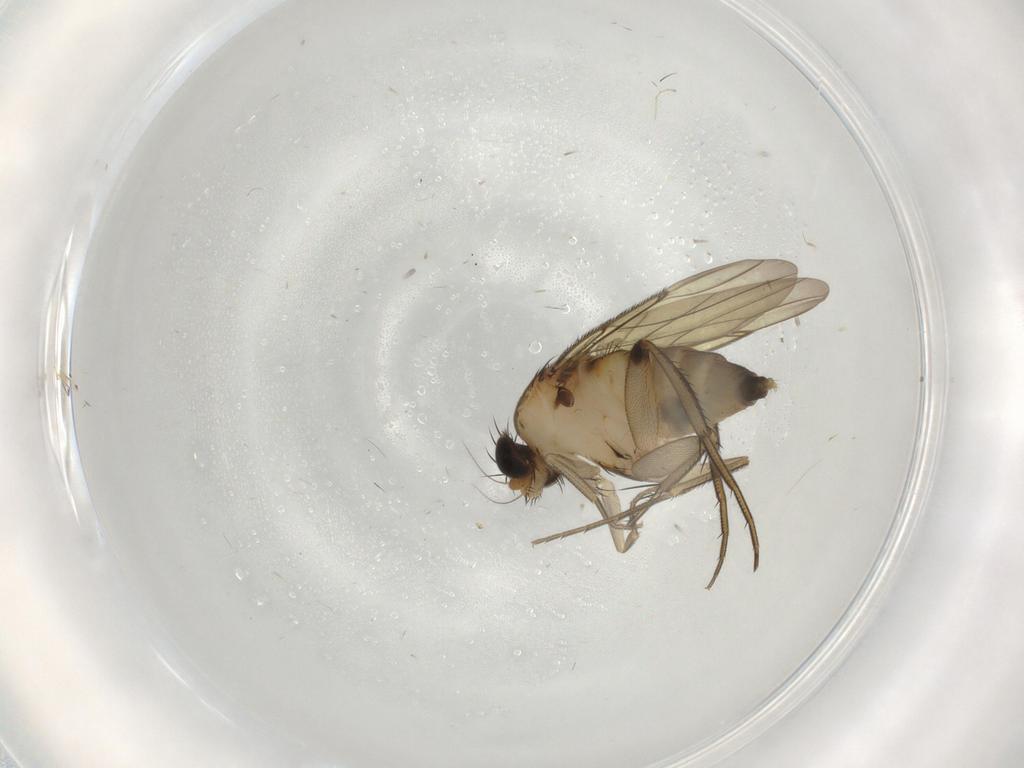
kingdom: Animalia
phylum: Arthropoda
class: Insecta
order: Diptera
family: Phoridae
